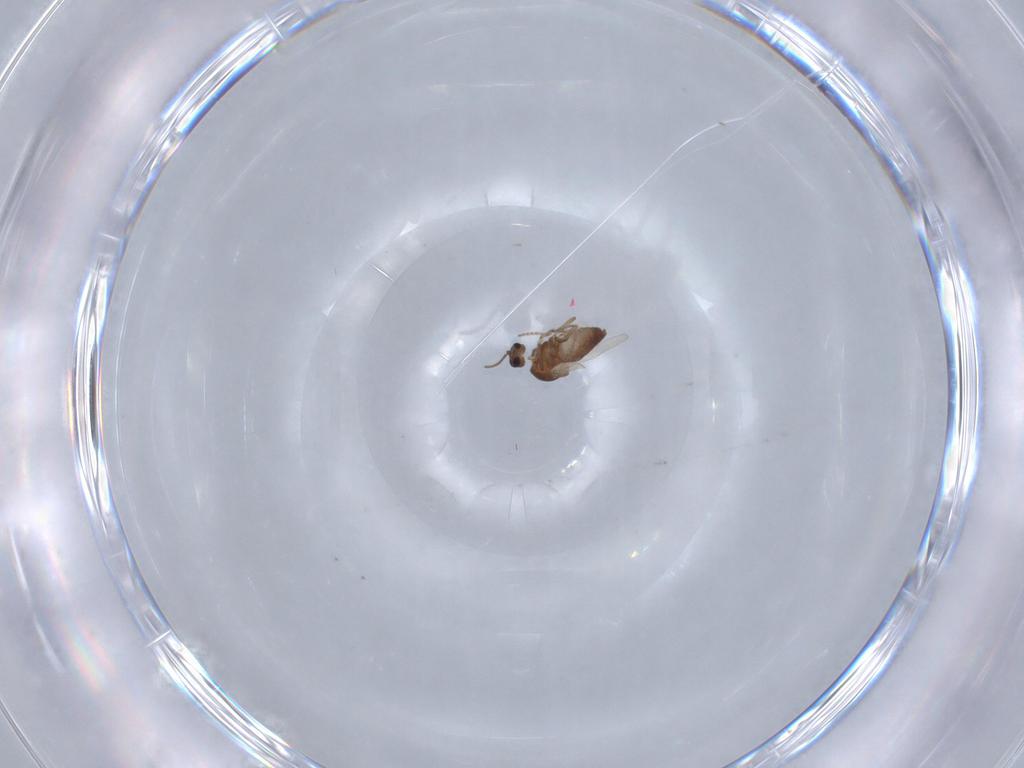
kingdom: Animalia
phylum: Arthropoda
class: Insecta
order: Diptera
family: Ceratopogonidae
